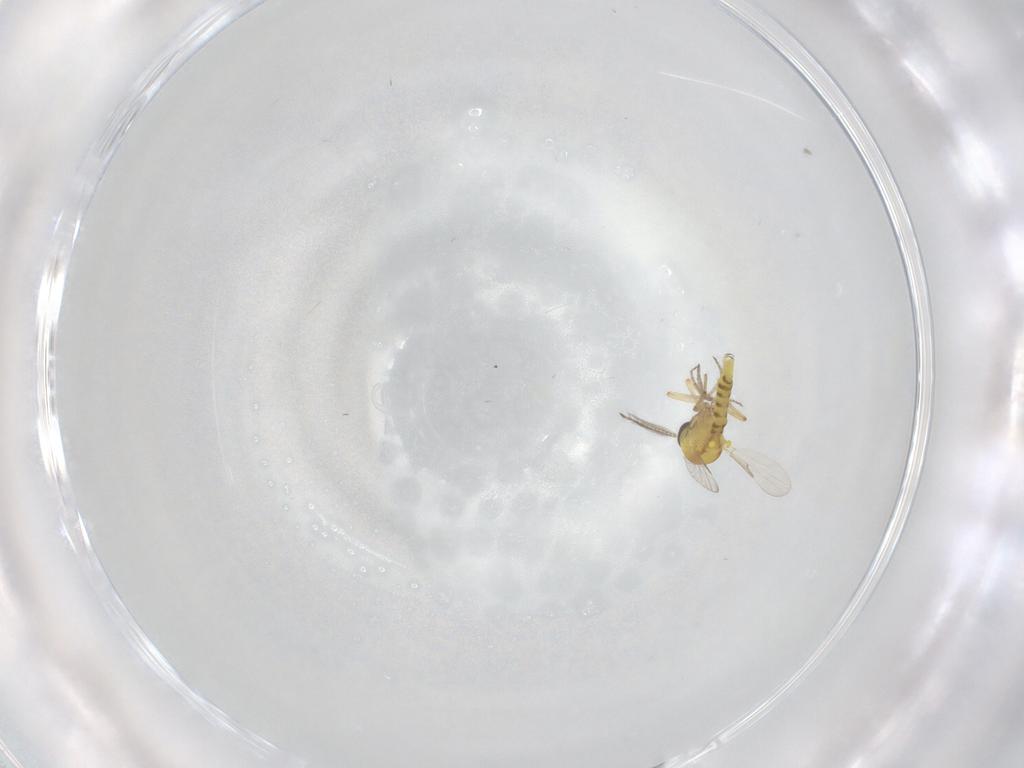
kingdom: Animalia
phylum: Arthropoda
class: Insecta
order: Diptera
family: Ceratopogonidae
